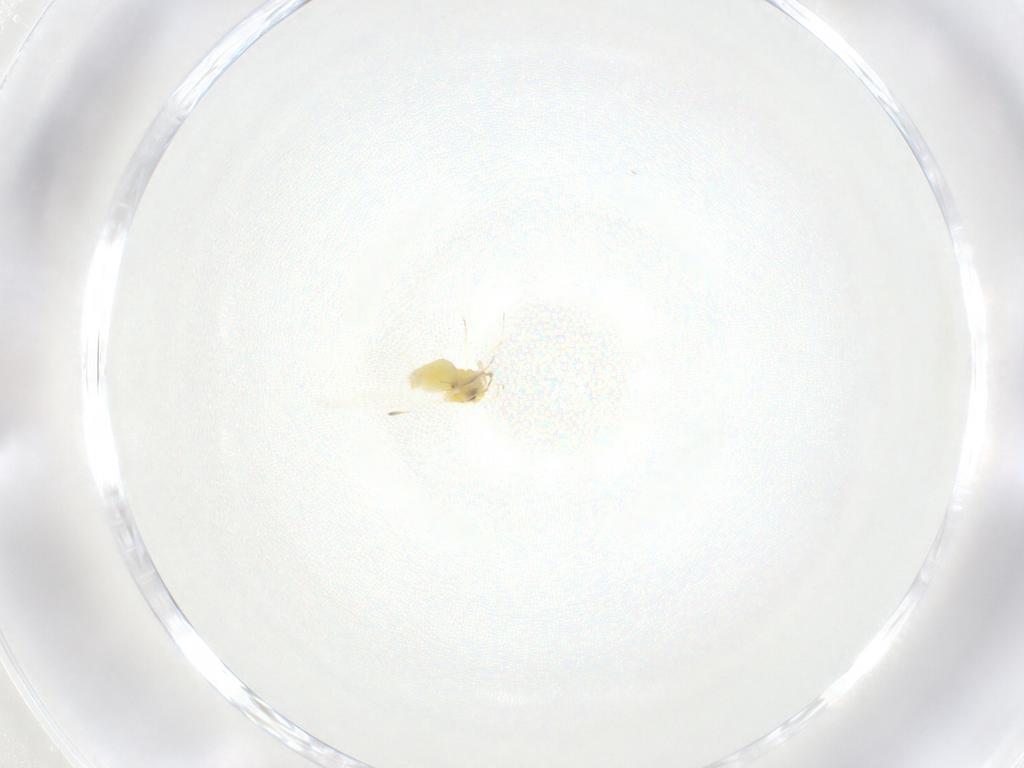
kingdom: Animalia
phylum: Arthropoda
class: Insecta
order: Hemiptera
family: Aleyrodidae
